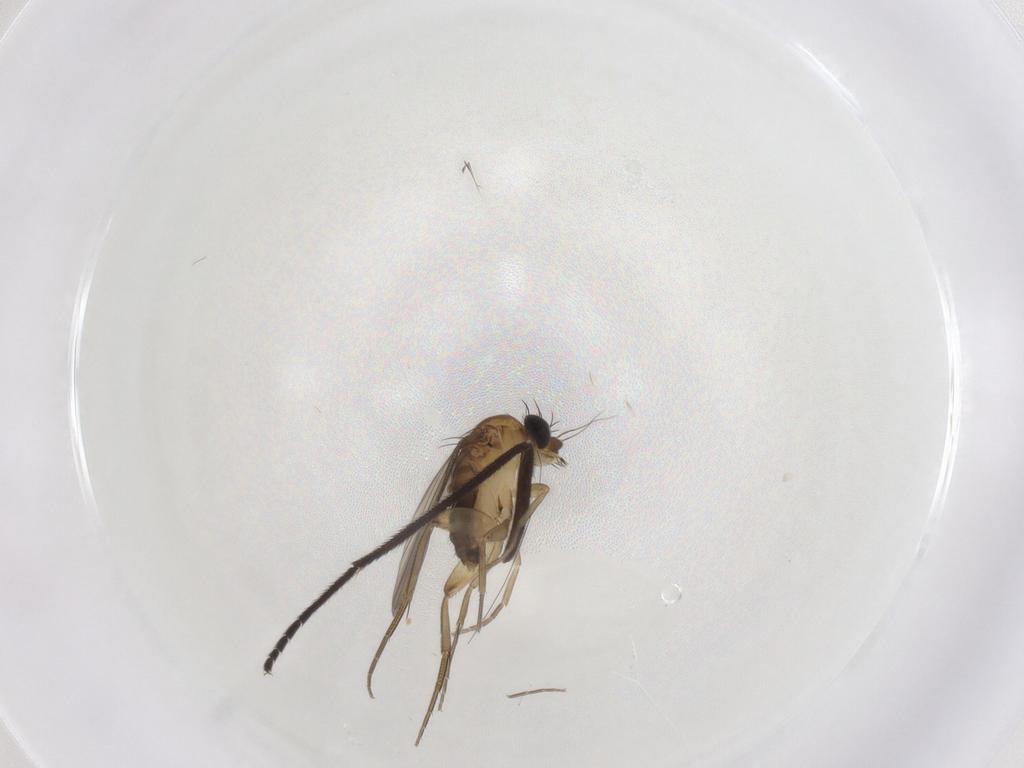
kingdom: Animalia
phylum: Arthropoda
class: Insecta
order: Diptera
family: Phoridae
